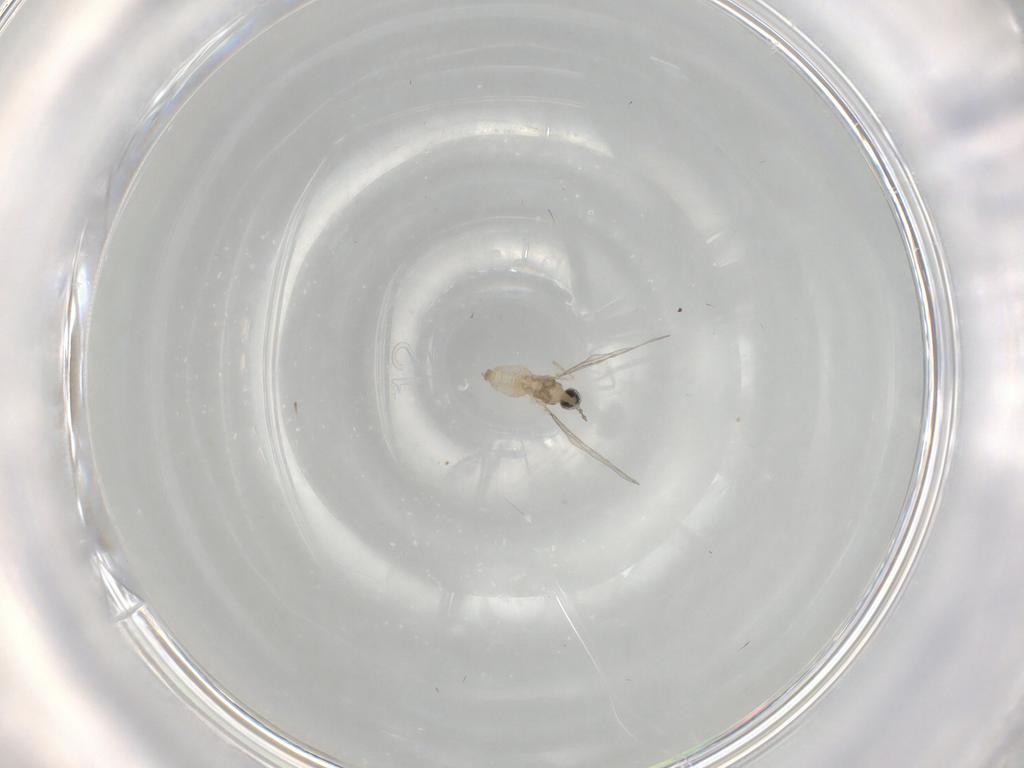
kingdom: Animalia
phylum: Arthropoda
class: Insecta
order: Diptera
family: Cecidomyiidae
